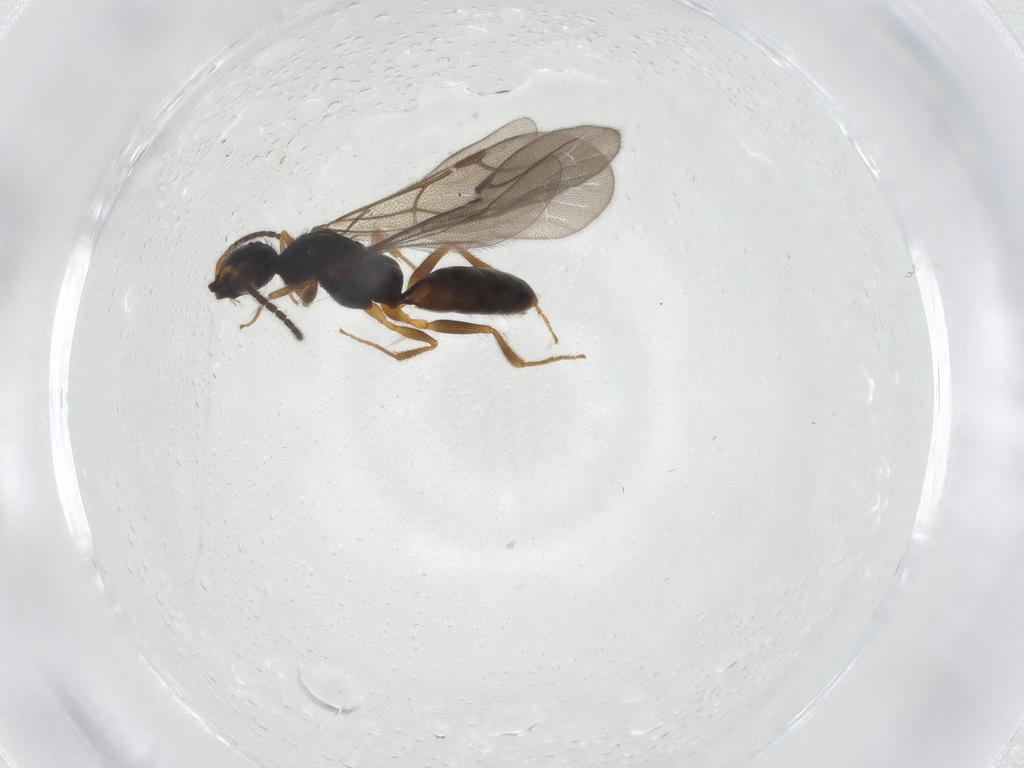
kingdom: Animalia
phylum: Arthropoda
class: Insecta
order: Hymenoptera
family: Bethylidae
